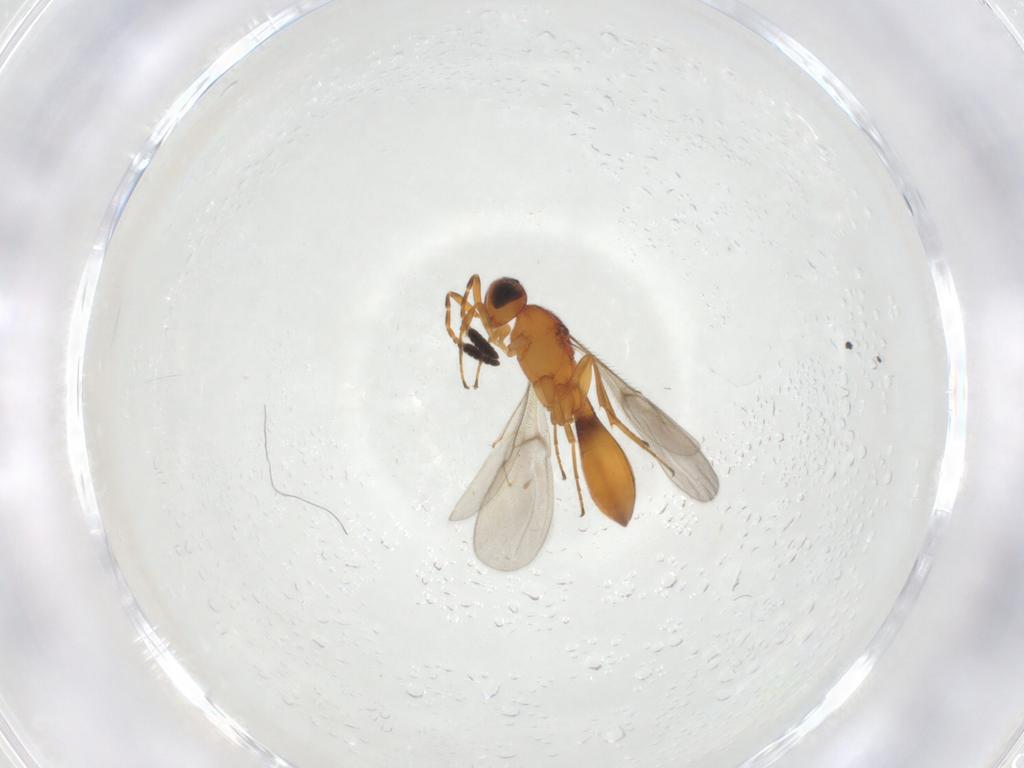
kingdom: Animalia
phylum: Arthropoda
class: Insecta
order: Hymenoptera
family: Scelionidae
